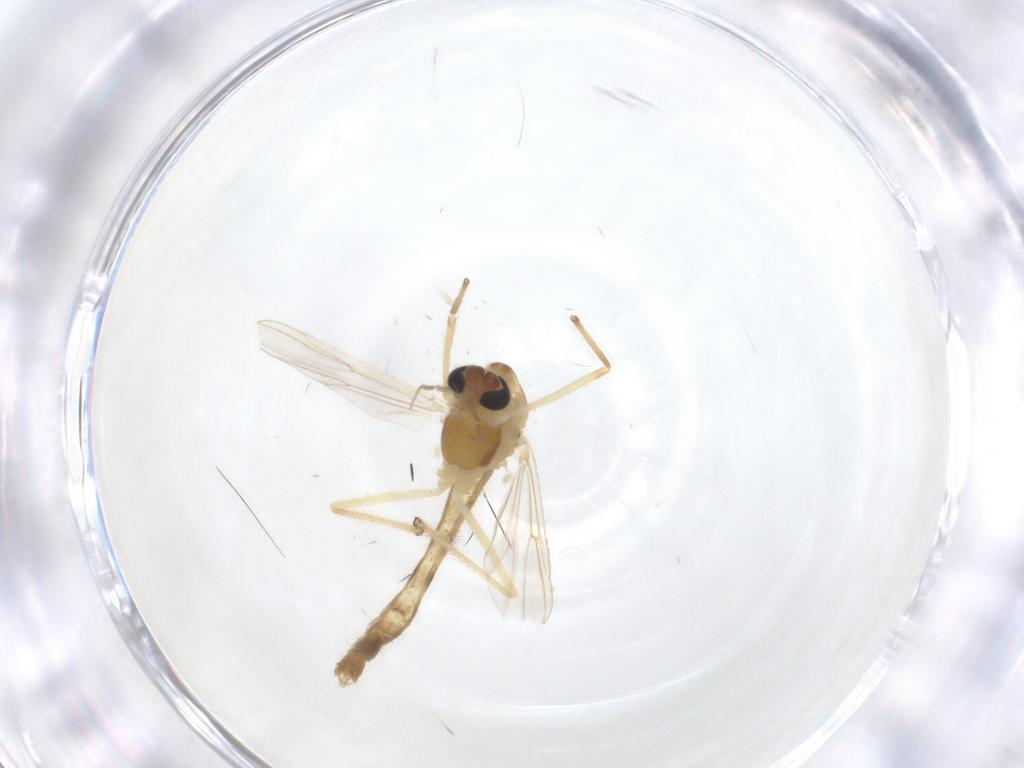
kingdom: Animalia
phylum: Arthropoda
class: Insecta
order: Diptera
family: Chironomidae
